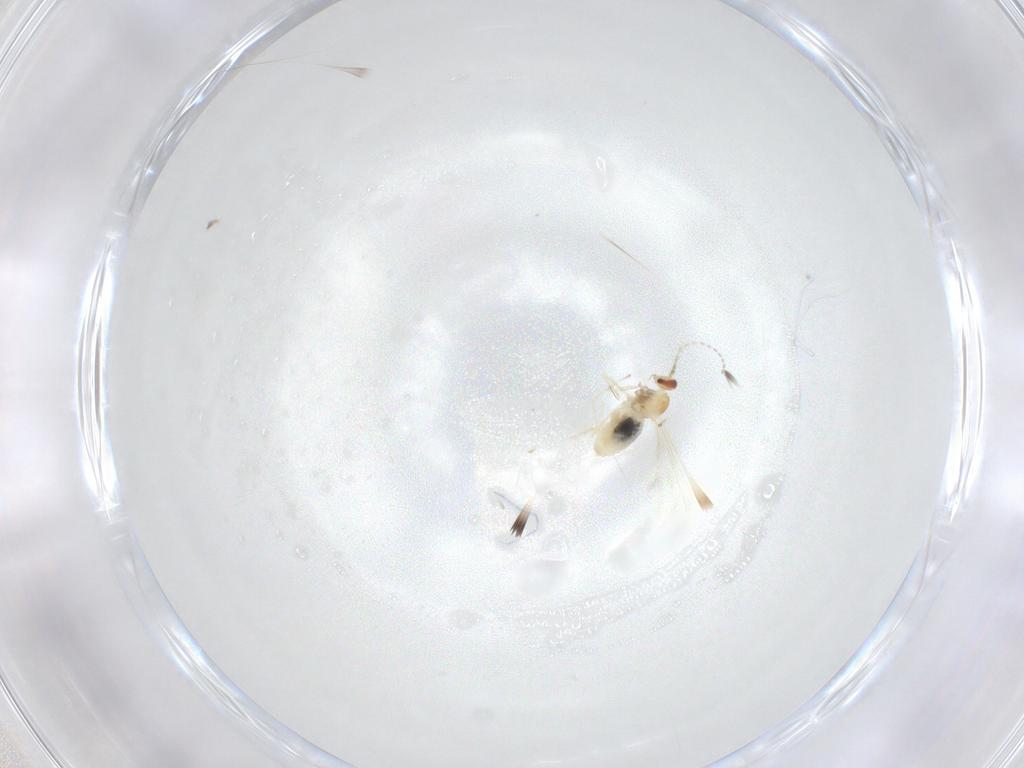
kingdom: Animalia
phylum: Arthropoda
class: Insecta
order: Diptera
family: Cecidomyiidae
